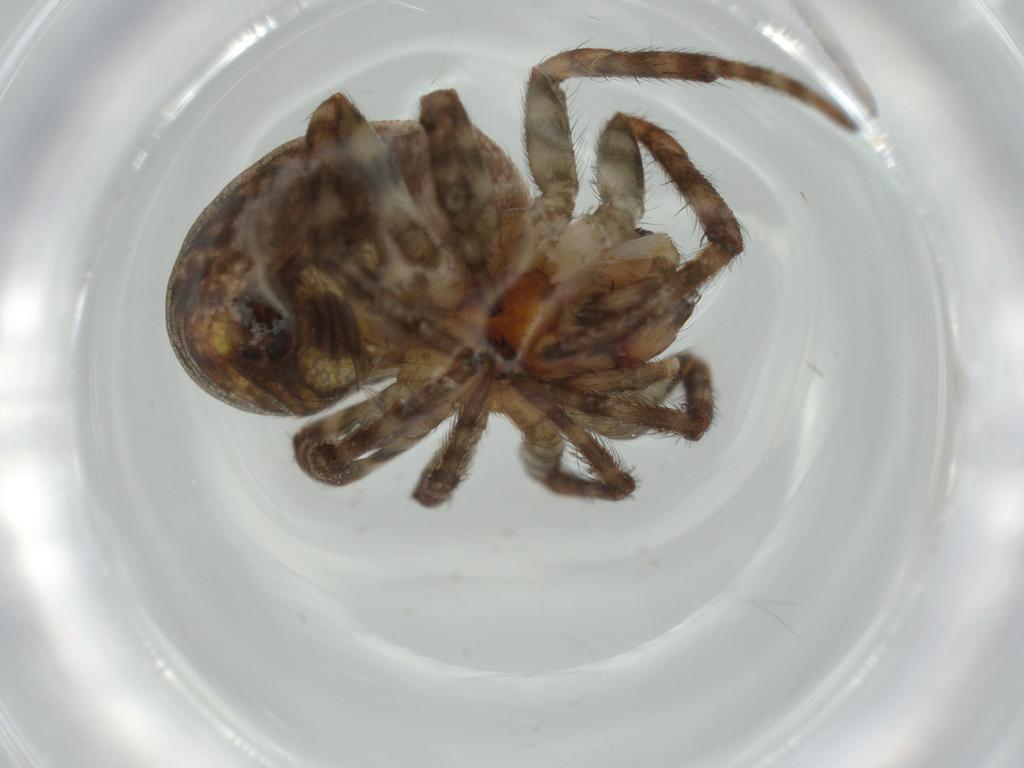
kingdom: Animalia
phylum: Arthropoda
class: Arachnida
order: Araneae
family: Araneidae
